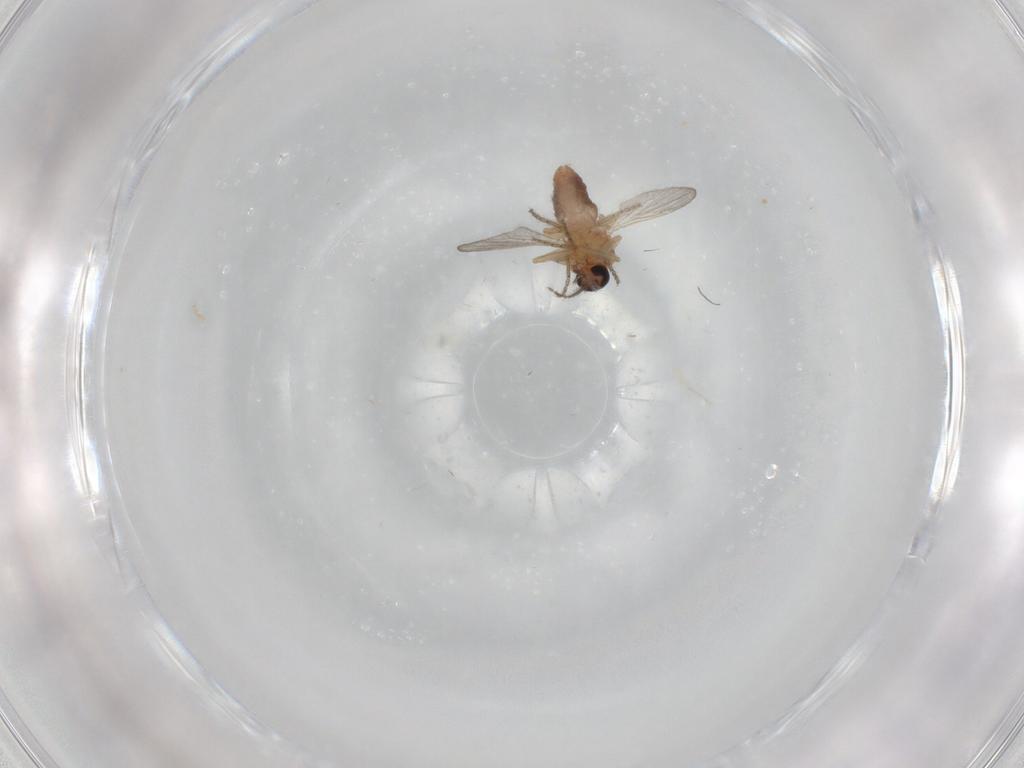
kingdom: Animalia
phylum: Arthropoda
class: Insecta
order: Diptera
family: Ceratopogonidae
